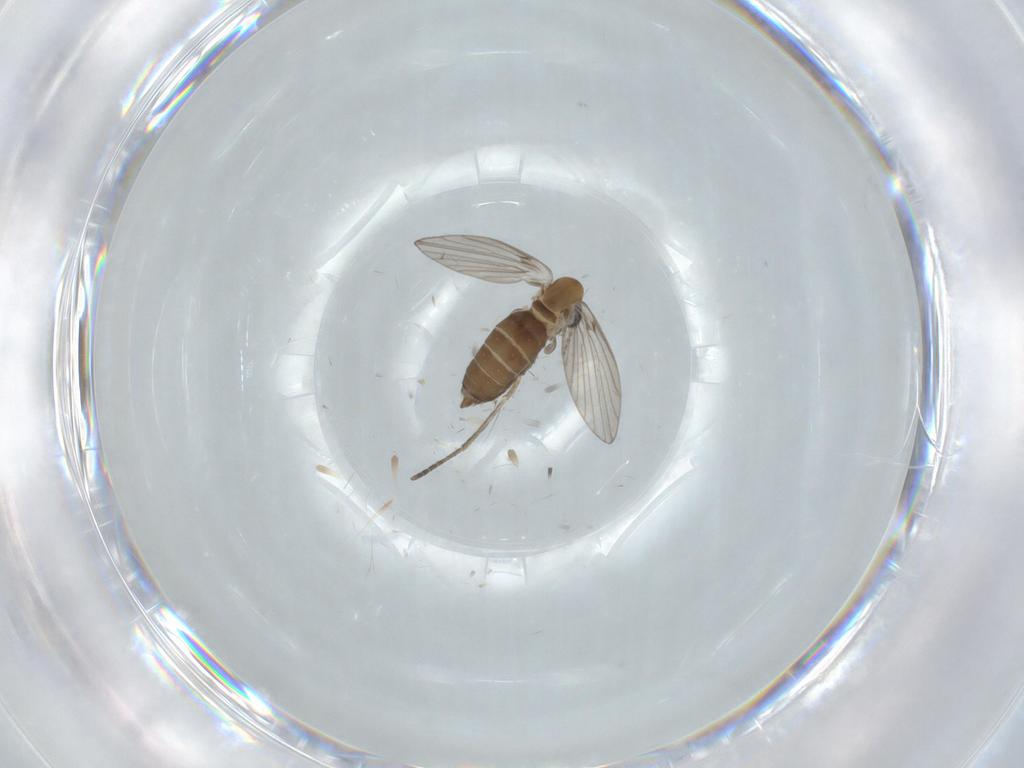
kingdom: Animalia
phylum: Arthropoda
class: Insecta
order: Diptera
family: Psychodidae
